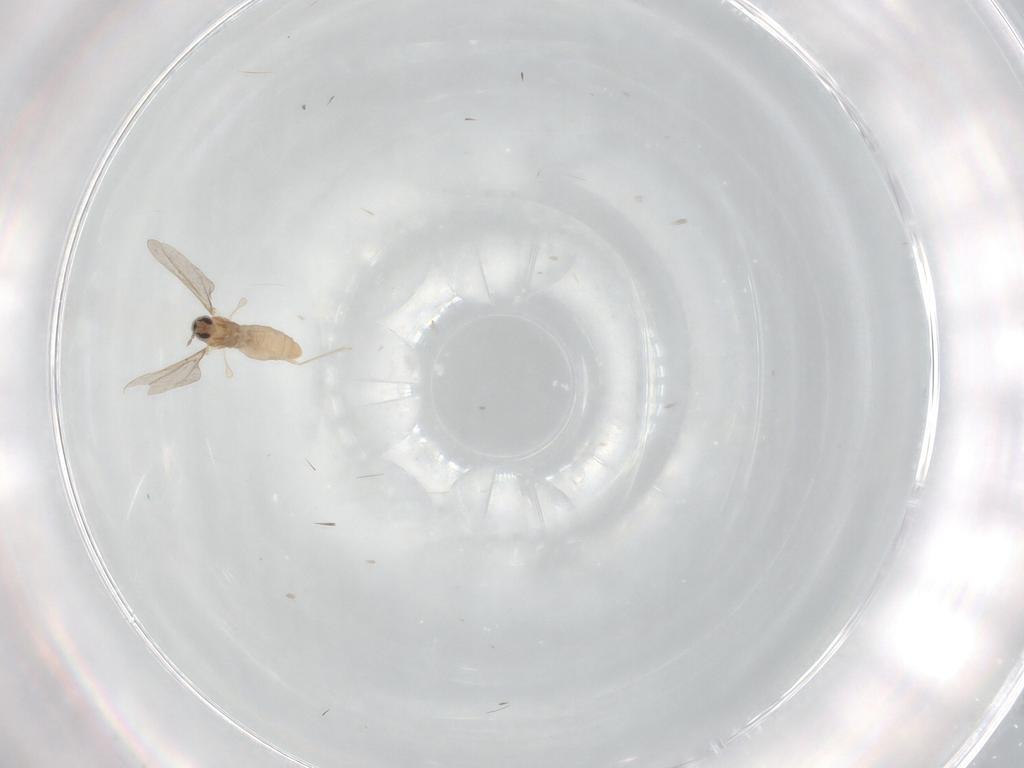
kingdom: Animalia
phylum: Arthropoda
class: Insecta
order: Diptera
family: Cecidomyiidae
